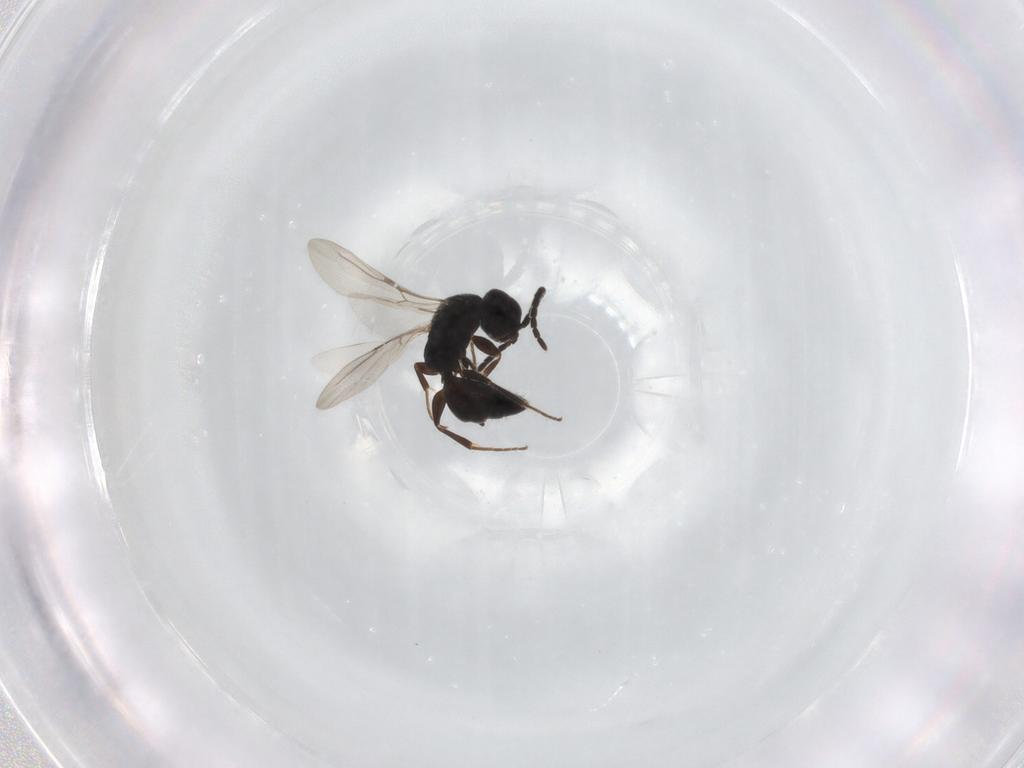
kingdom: Animalia
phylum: Arthropoda
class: Insecta
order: Hymenoptera
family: Bethylidae
